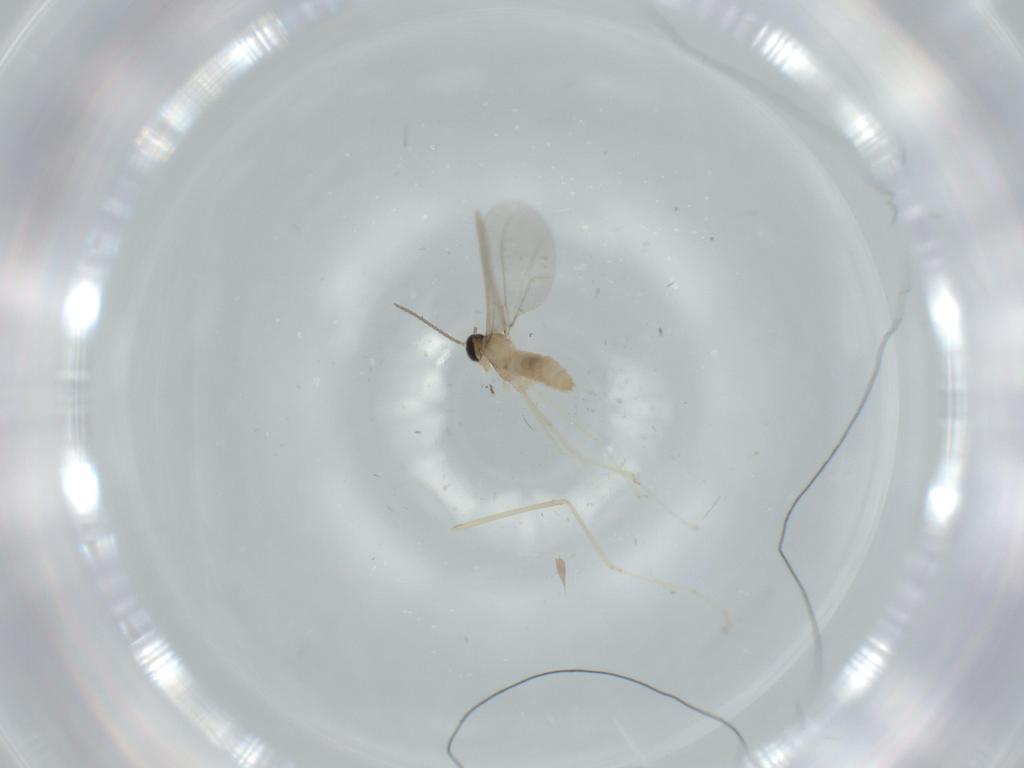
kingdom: Animalia
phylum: Arthropoda
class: Insecta
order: Diptera
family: Cecidomyiidae
